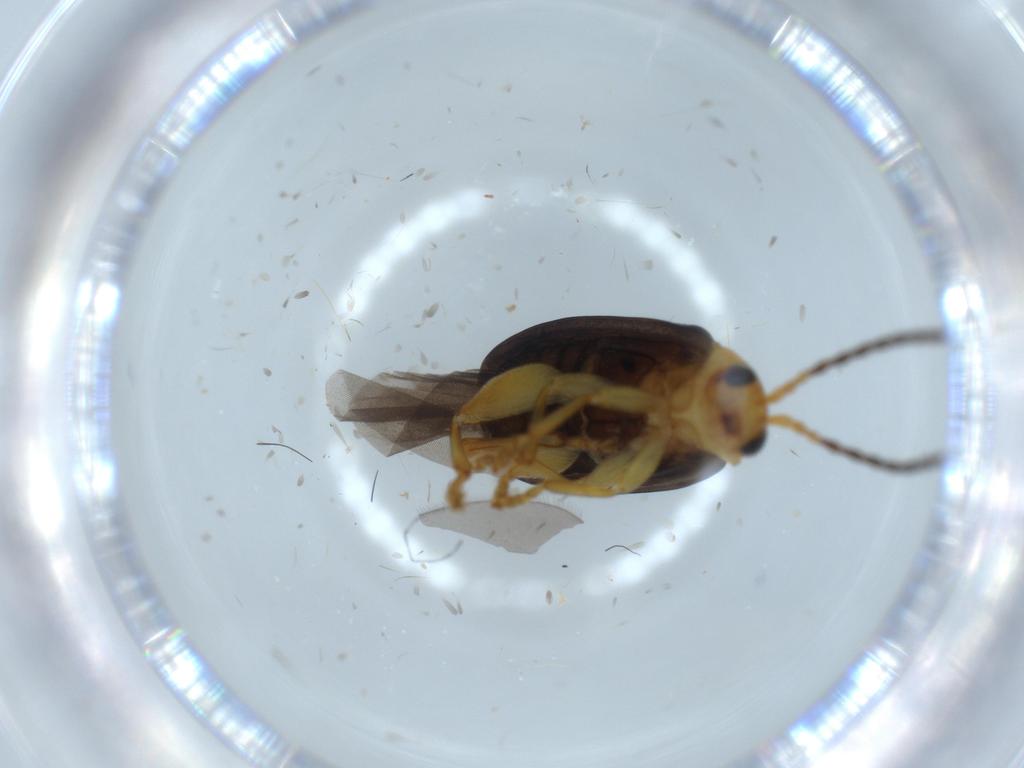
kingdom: Animalia
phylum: Arthropoda
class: Insecta
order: Coleoptera
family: Chrysomelidae
